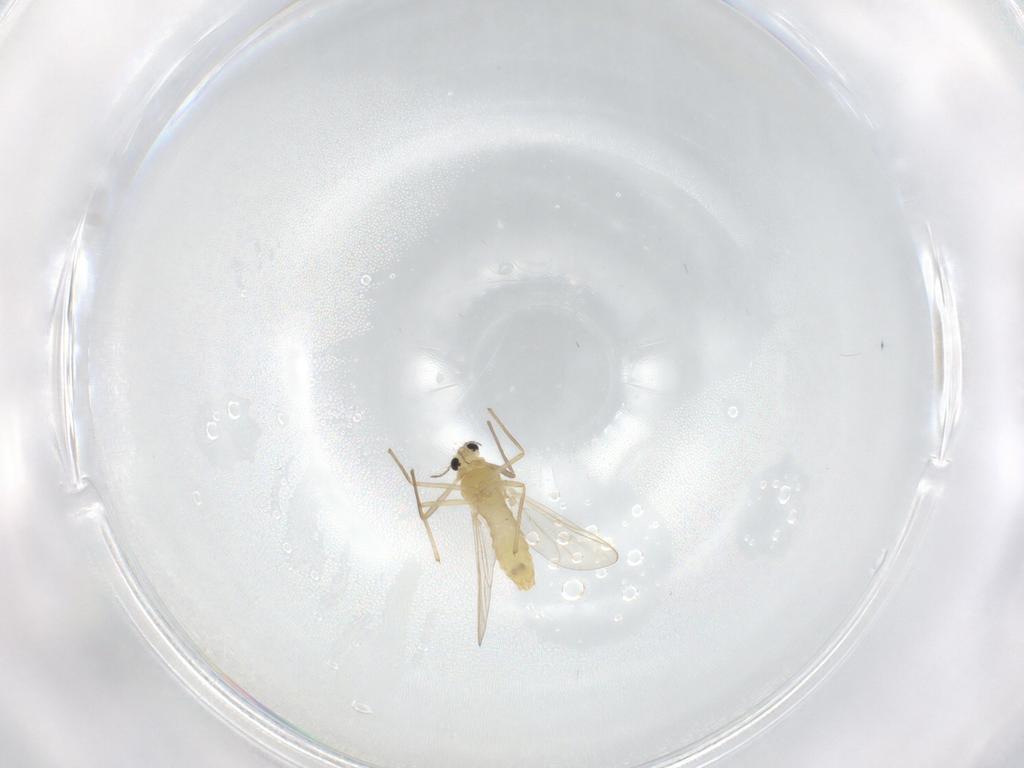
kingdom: Animalia
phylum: Arthropoda
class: Insecta
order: Diptera
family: Chironomidae
